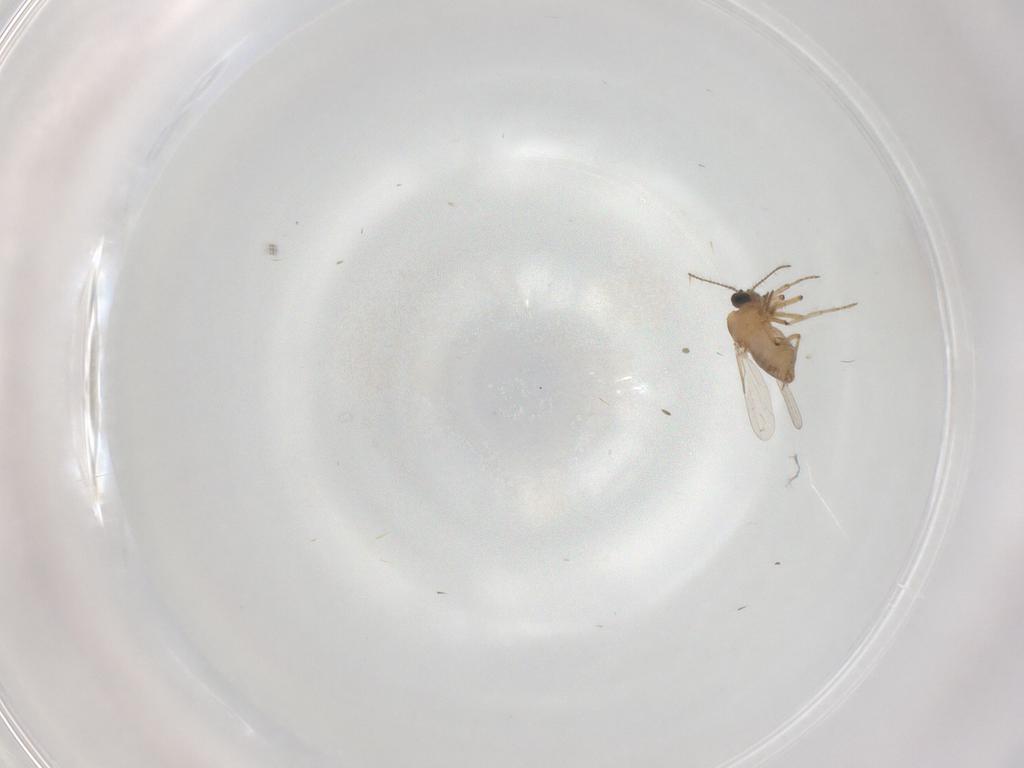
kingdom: Animalia
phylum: Arthropoda
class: Insecta
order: Diptera
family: Ceratopogonidae
